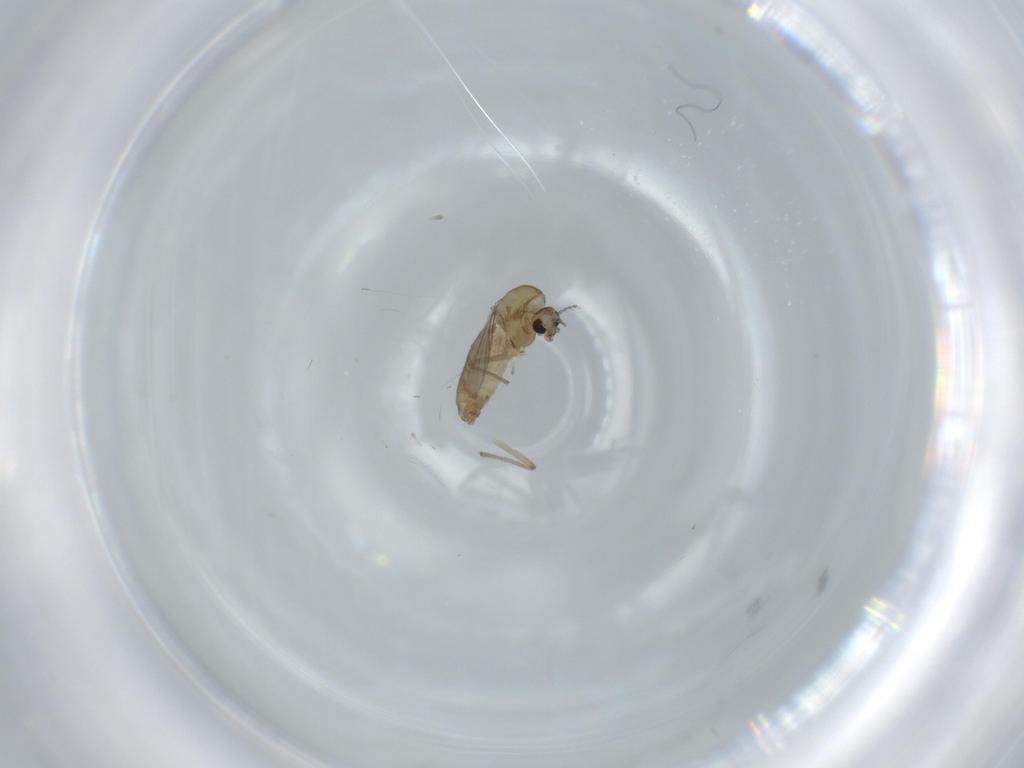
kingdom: Animalia
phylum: Arthropoda
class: Insecta
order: Diptera
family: Chironomidae
